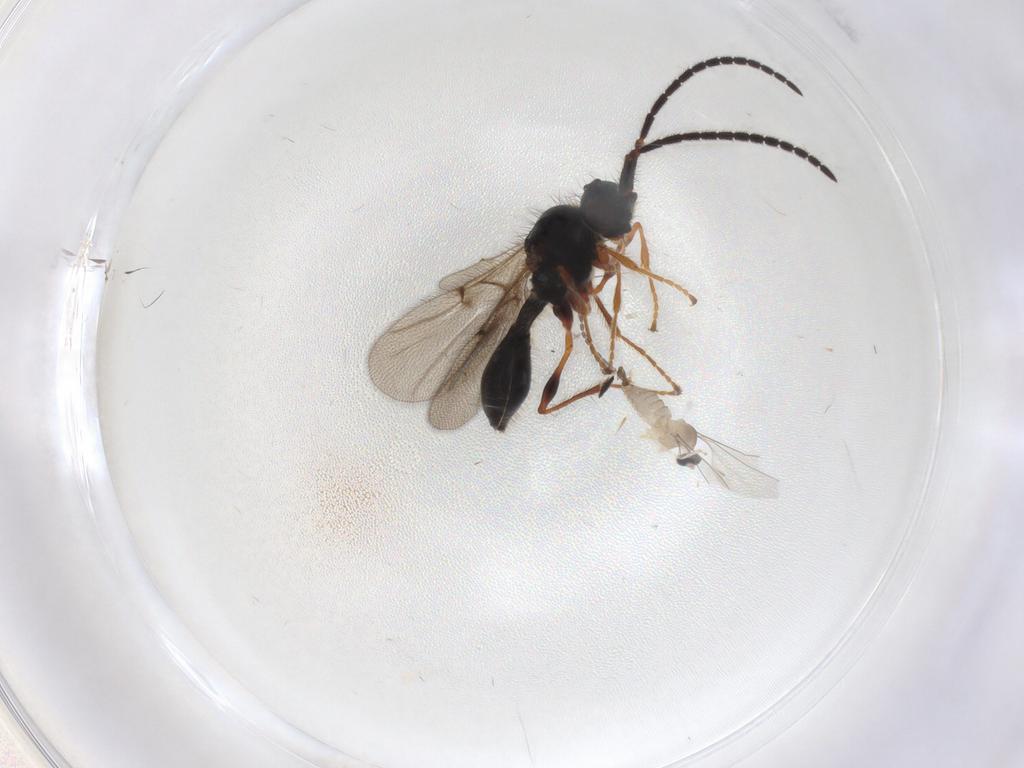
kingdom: Animalia
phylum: Arthropoda
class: Insecta
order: Diptera
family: Cecidomyiidae
